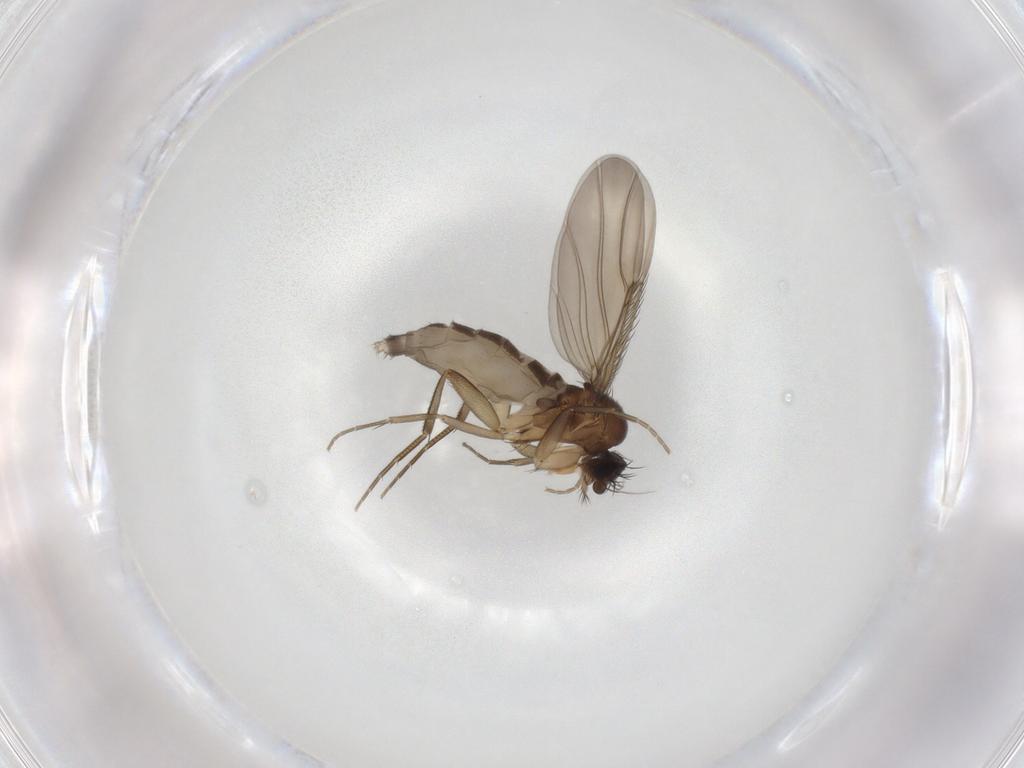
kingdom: Animalia
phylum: Arthropoda
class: Insecta
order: Diptera
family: Phoridae
